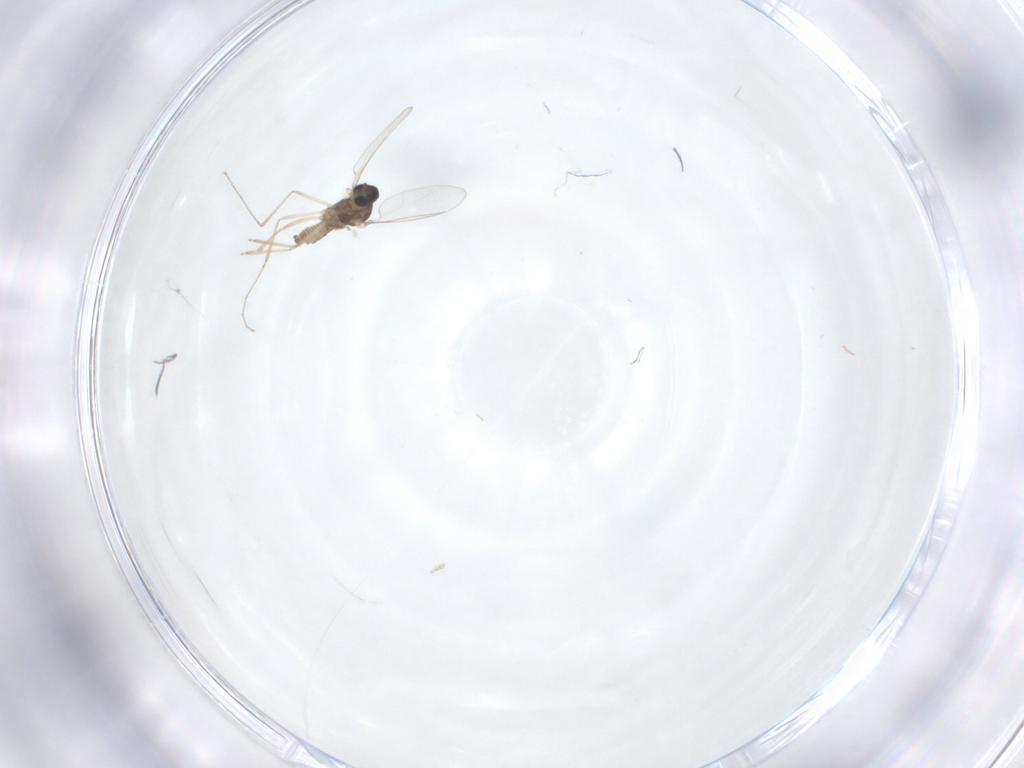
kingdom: Animalia
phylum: Arthropoda
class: Insecta
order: Diptera
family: Cecidomyiidae
